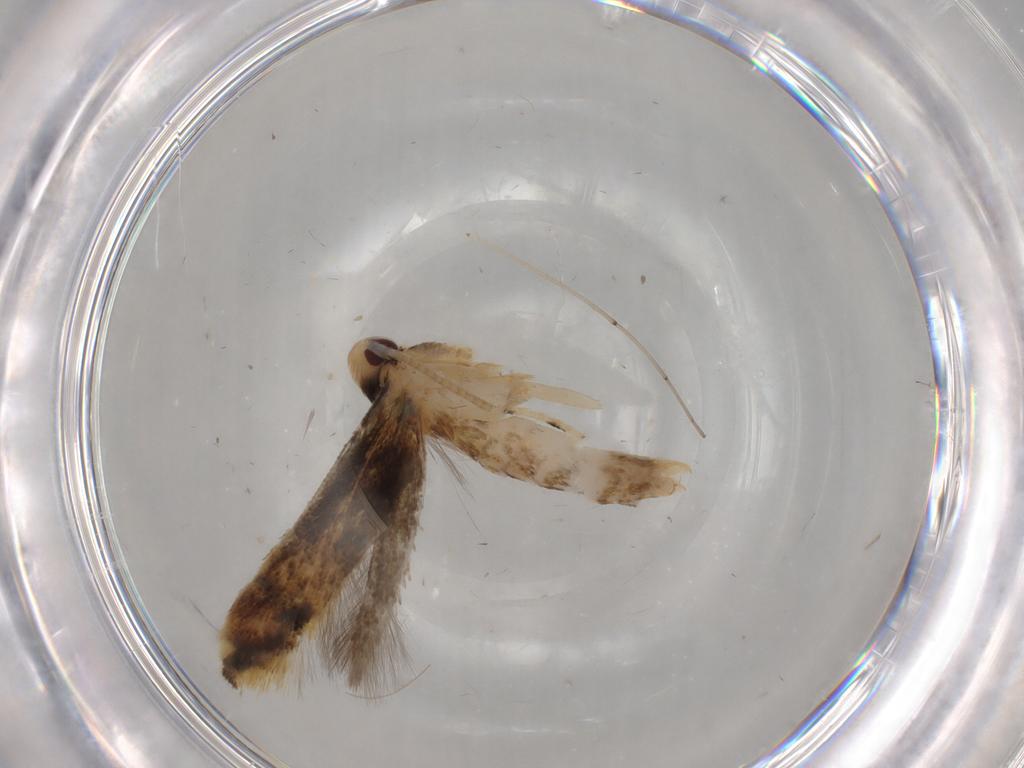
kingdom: Animalia
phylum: Arthropoda
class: Insecta
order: Lepidoptera
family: Momphidae
